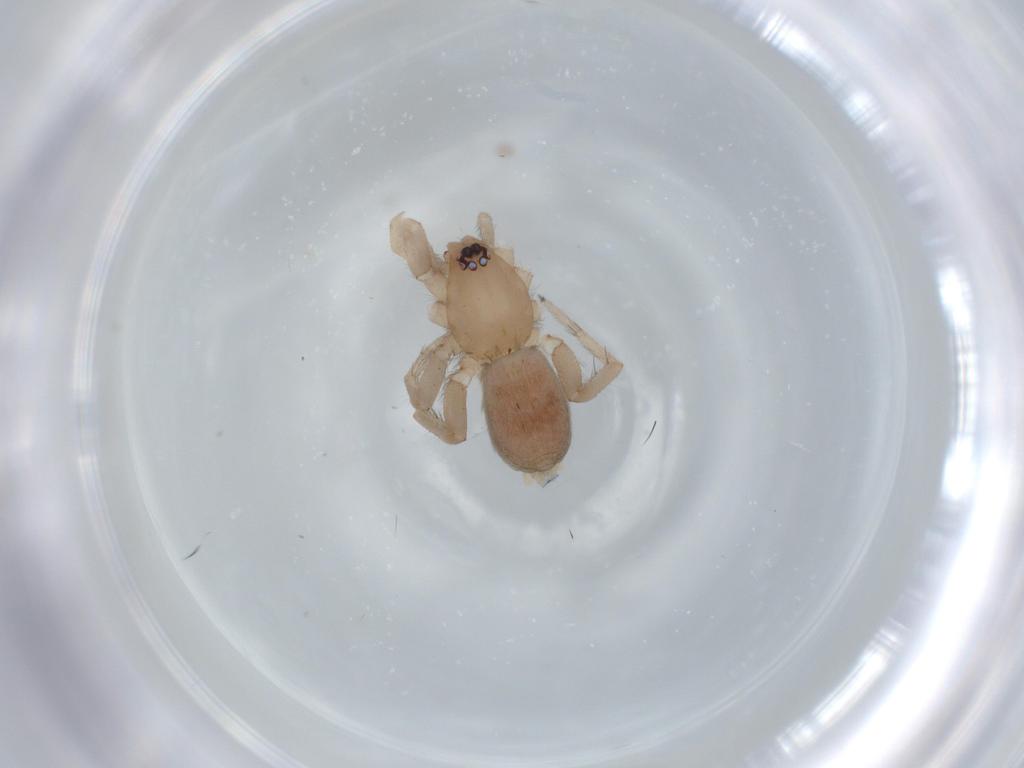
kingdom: Animalia
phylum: Arthropoda
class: Arachnida
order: Araneae
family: Gnaphosidae
